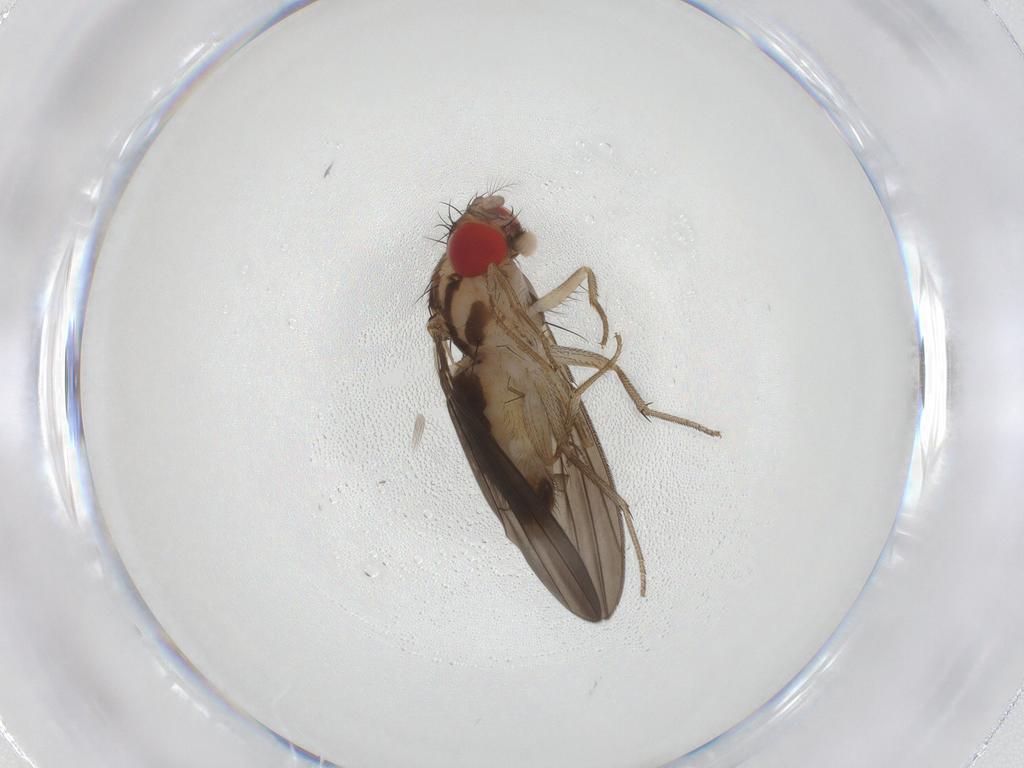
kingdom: Animalia
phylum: Arthropoda
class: Insecta
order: Diptera
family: Drosophilidae
